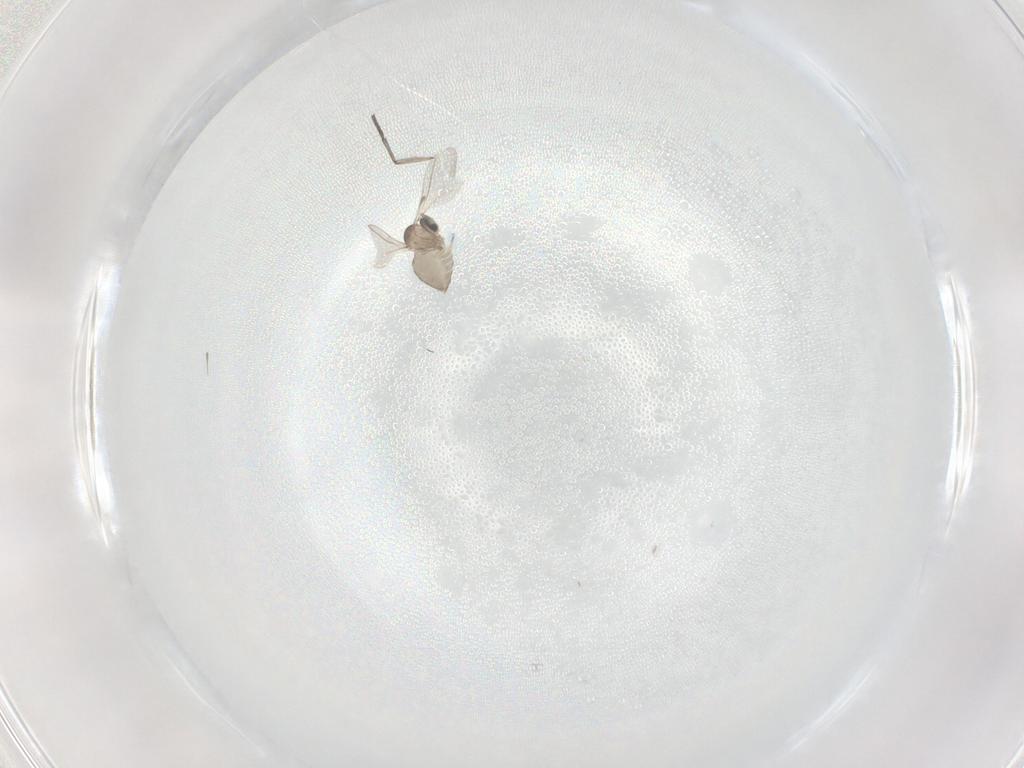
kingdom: Animalia
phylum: Arthropoda
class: Insecta
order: Diptera
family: Cecidomyiidae
